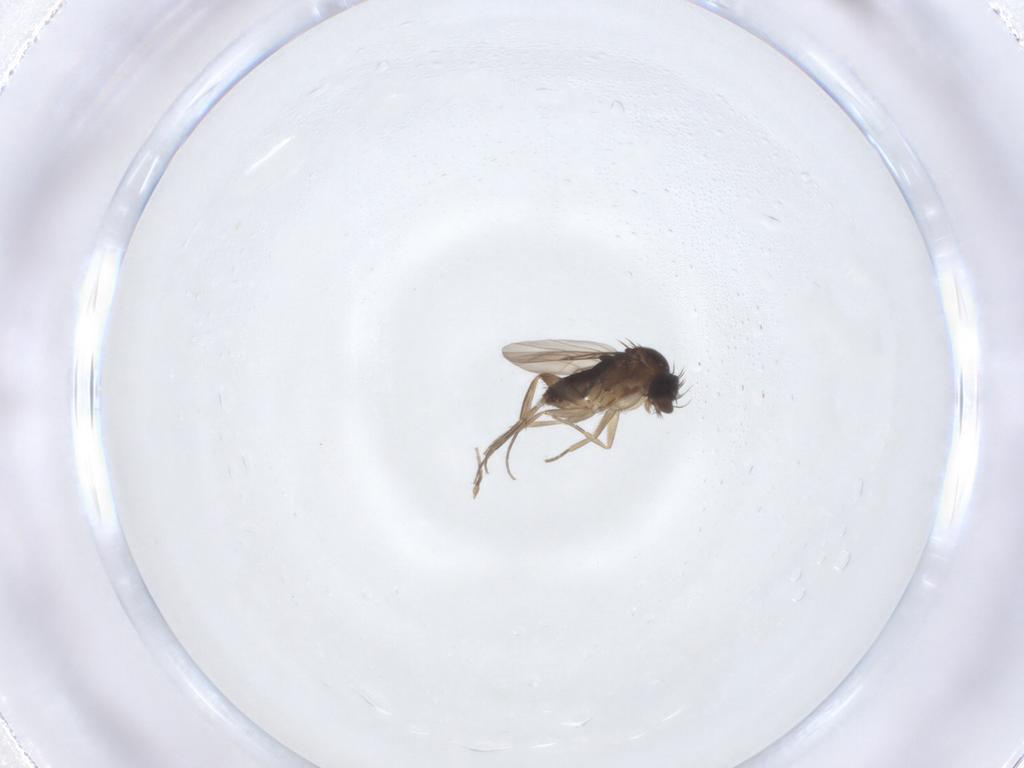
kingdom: Animalia
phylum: Arthropoda
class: Insecta
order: Diptera
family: Phoridae
